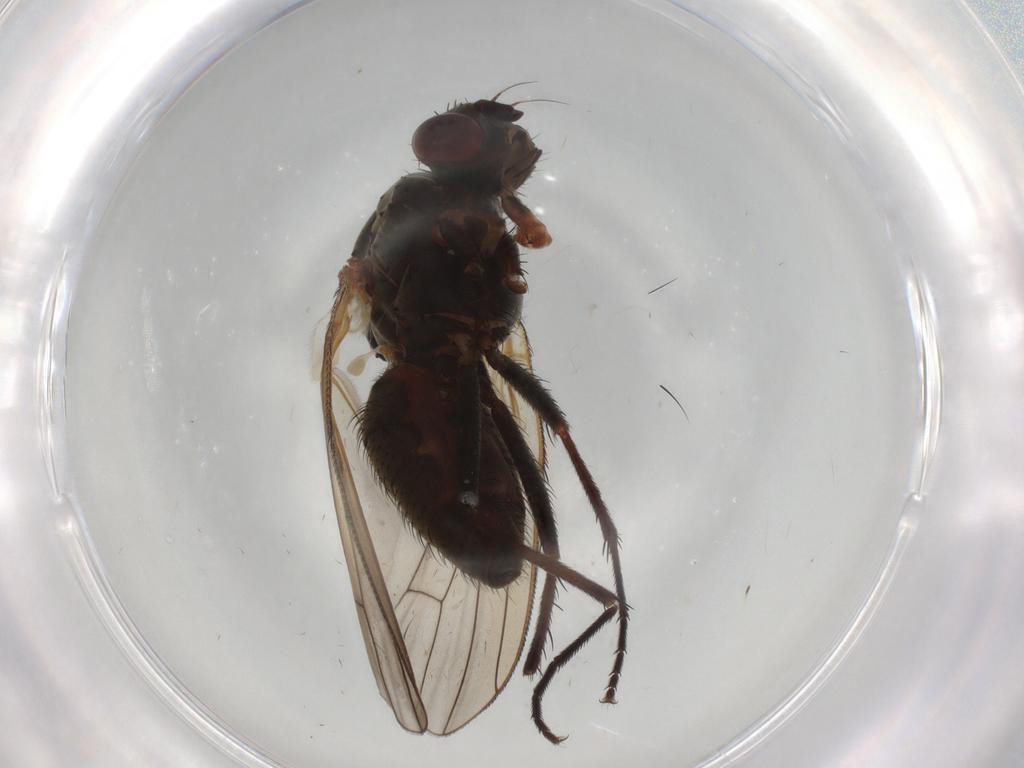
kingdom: Animalia
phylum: Arthropoda
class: Insecta
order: Diptera
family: Anthomyiidae
